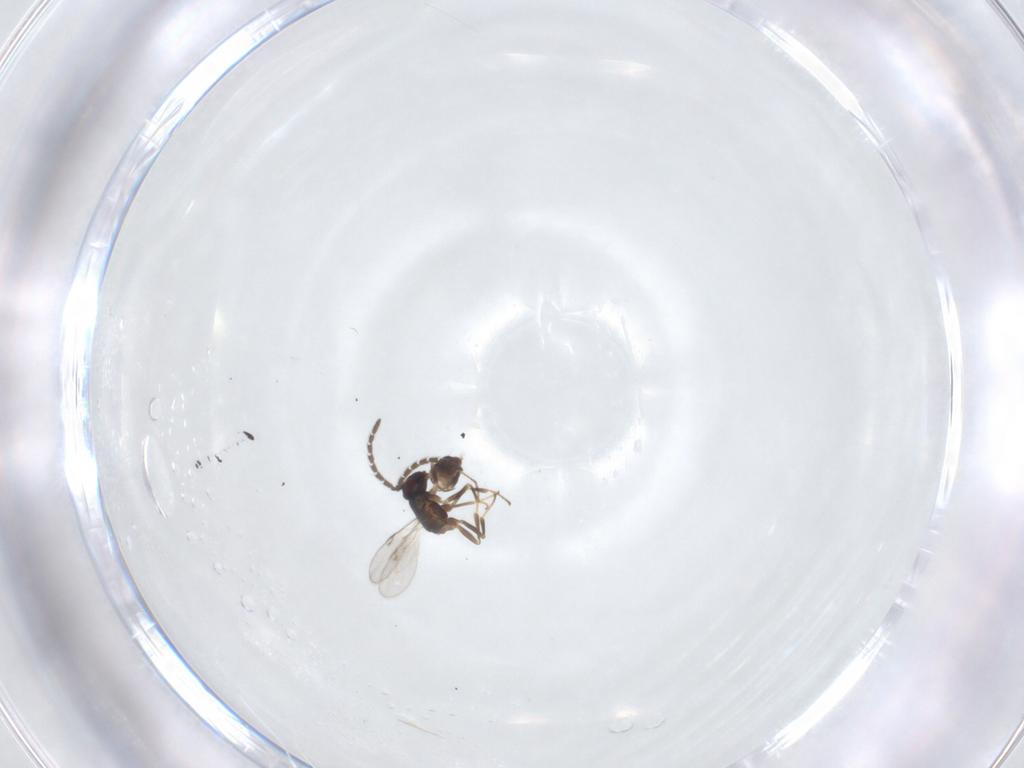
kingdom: Animalia
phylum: Arthropoda
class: Insecta
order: Hymenoptera
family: Encyrtidae
